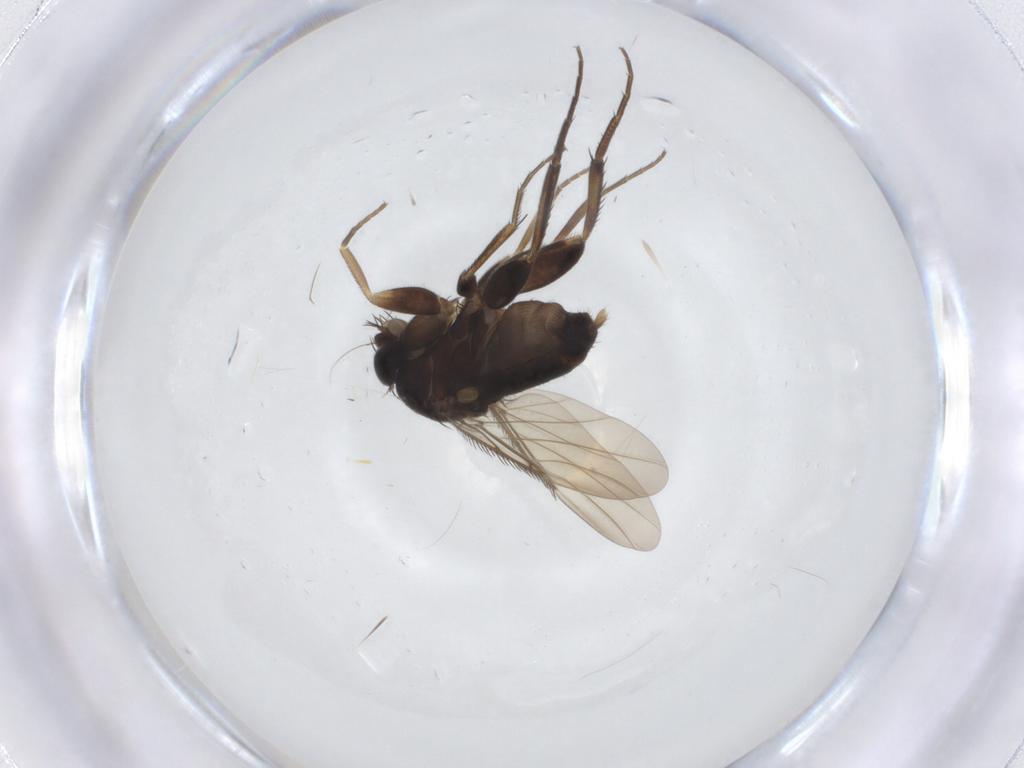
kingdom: Animalia
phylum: Arthropoda
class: Insecta
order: Diptera
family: Phoridae
